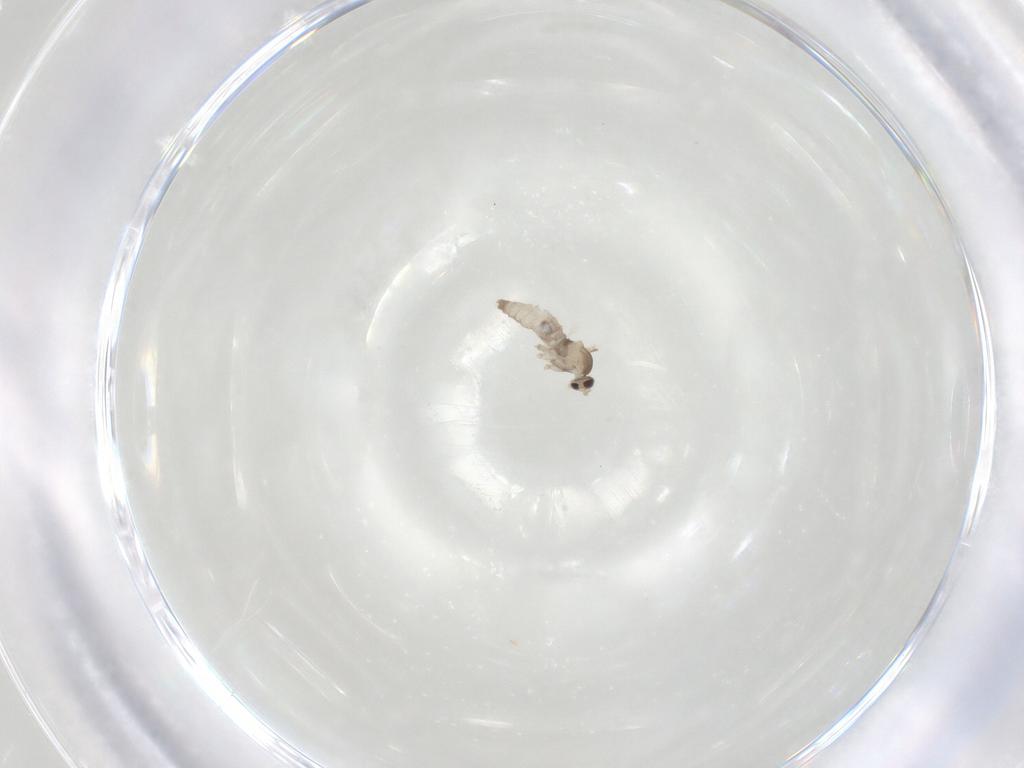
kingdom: Animalia
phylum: Arthropoda
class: Insecta
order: Diptera
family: Cecidomyiidae
